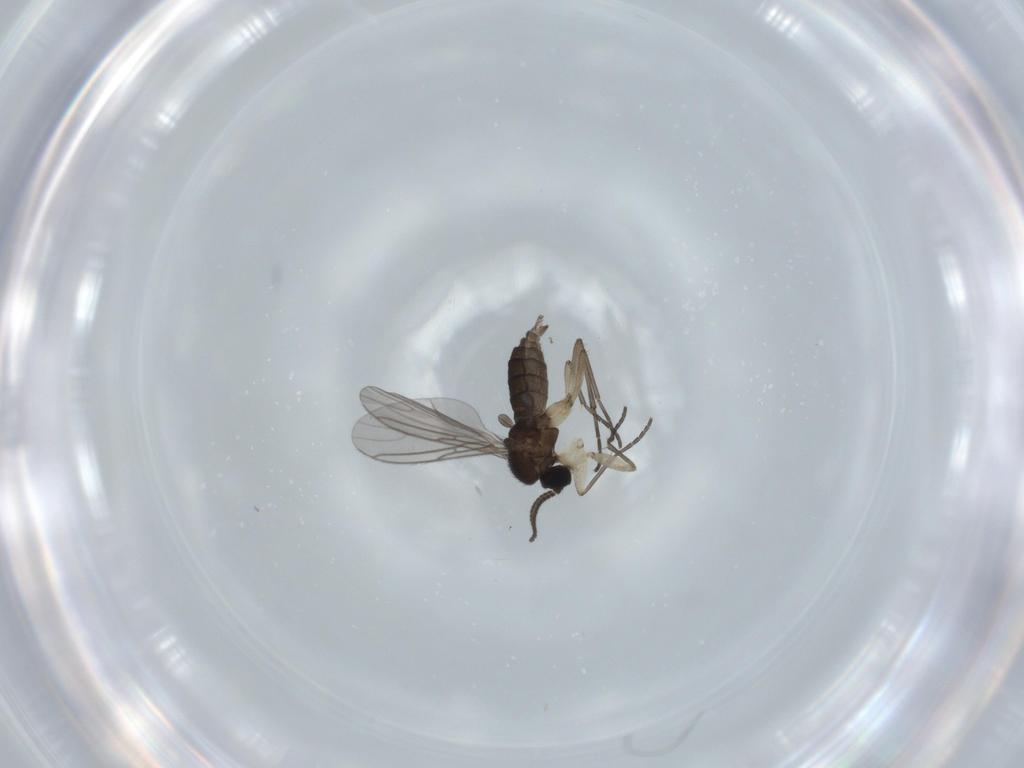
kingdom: Animalia
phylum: Arthropoda
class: Insecta
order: Diptera
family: Sciaridae
